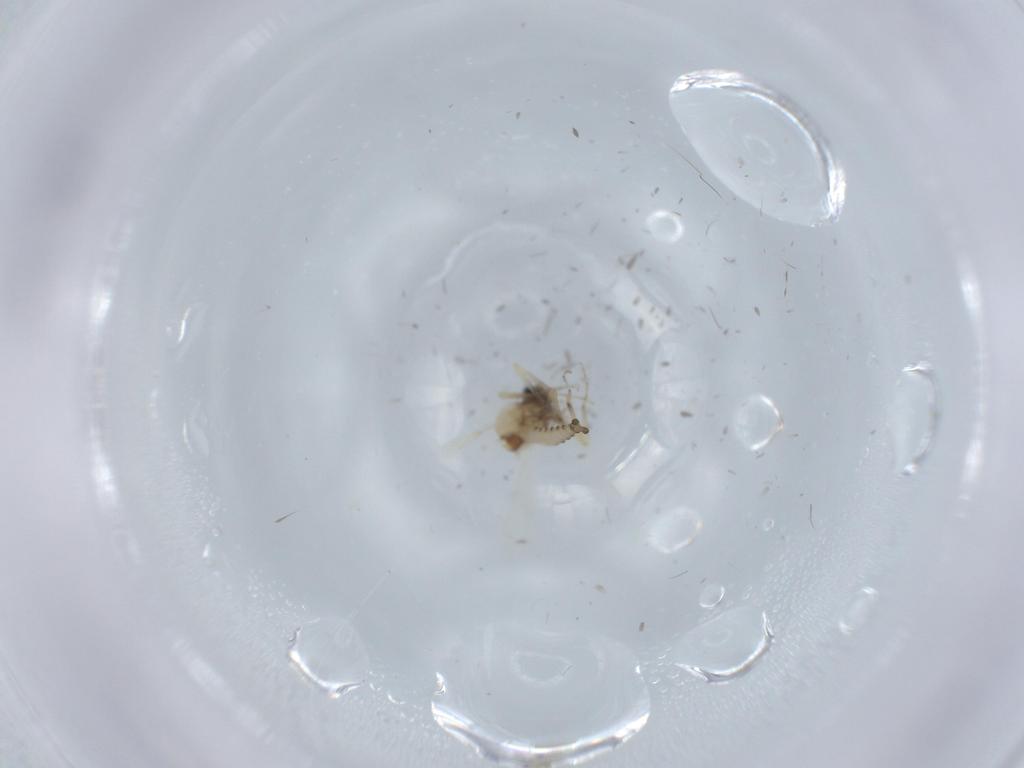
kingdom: Animalia
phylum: Arthropoda
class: Insecta
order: Diptera
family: Ceratopogonidae
